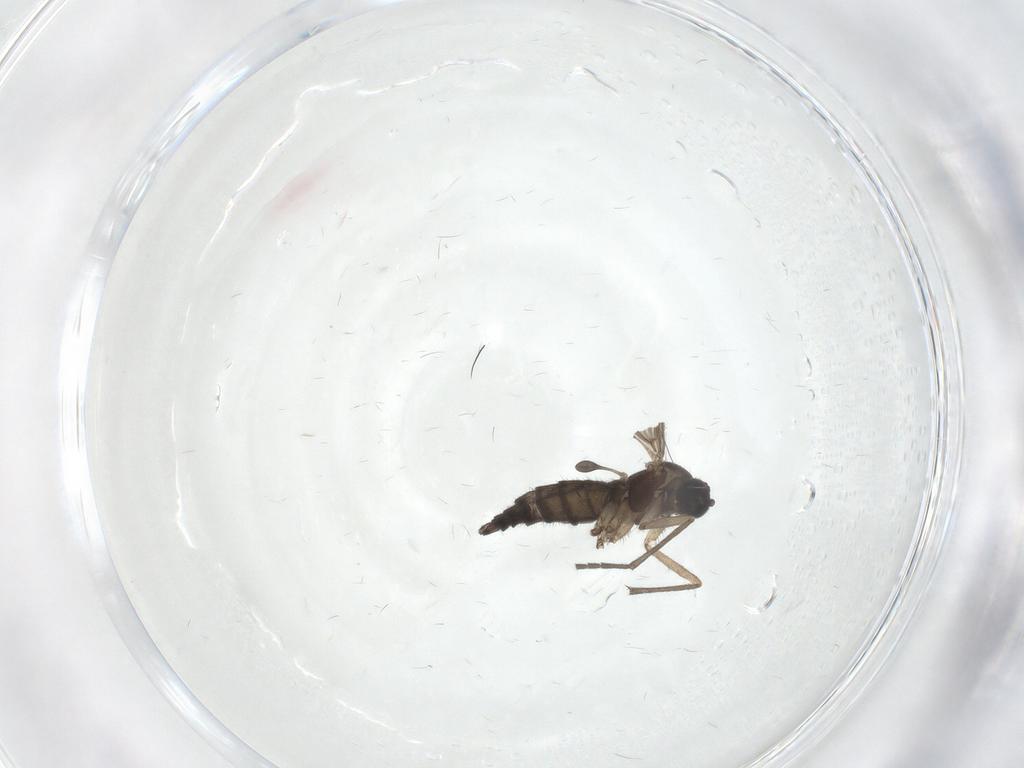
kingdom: Animalia
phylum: Arthropoda
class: Insecta
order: Diptera
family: Sciaridae
